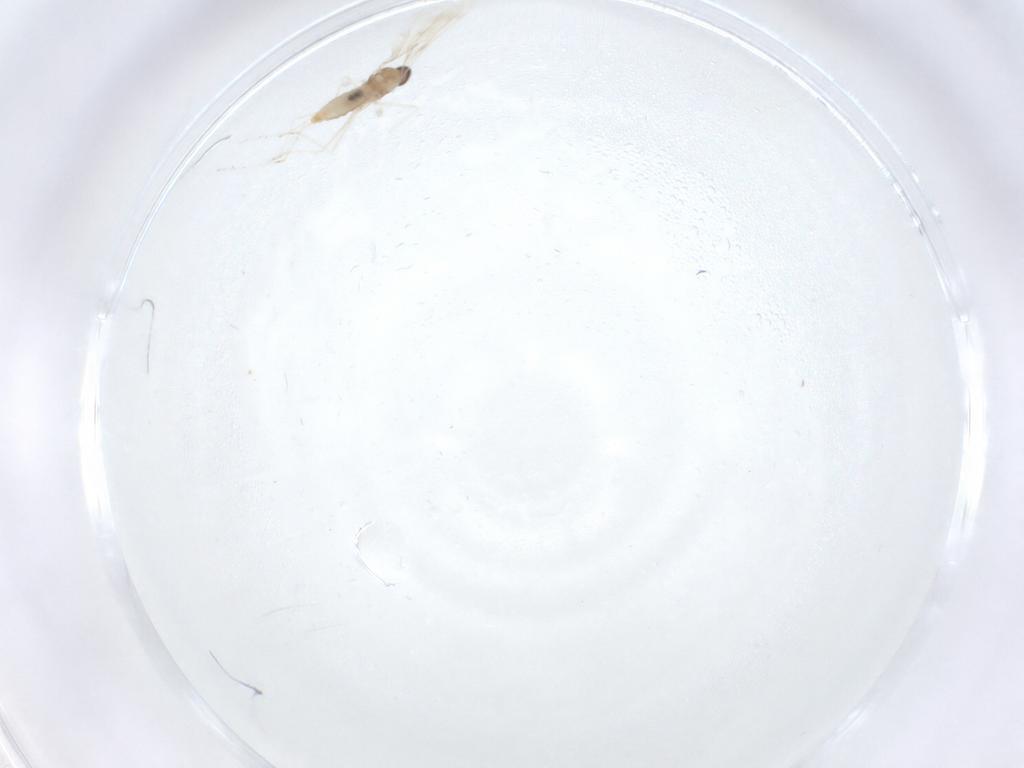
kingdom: Animalia
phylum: Arthropoda
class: Insecta
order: Diptera
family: Cecidomyiidae
